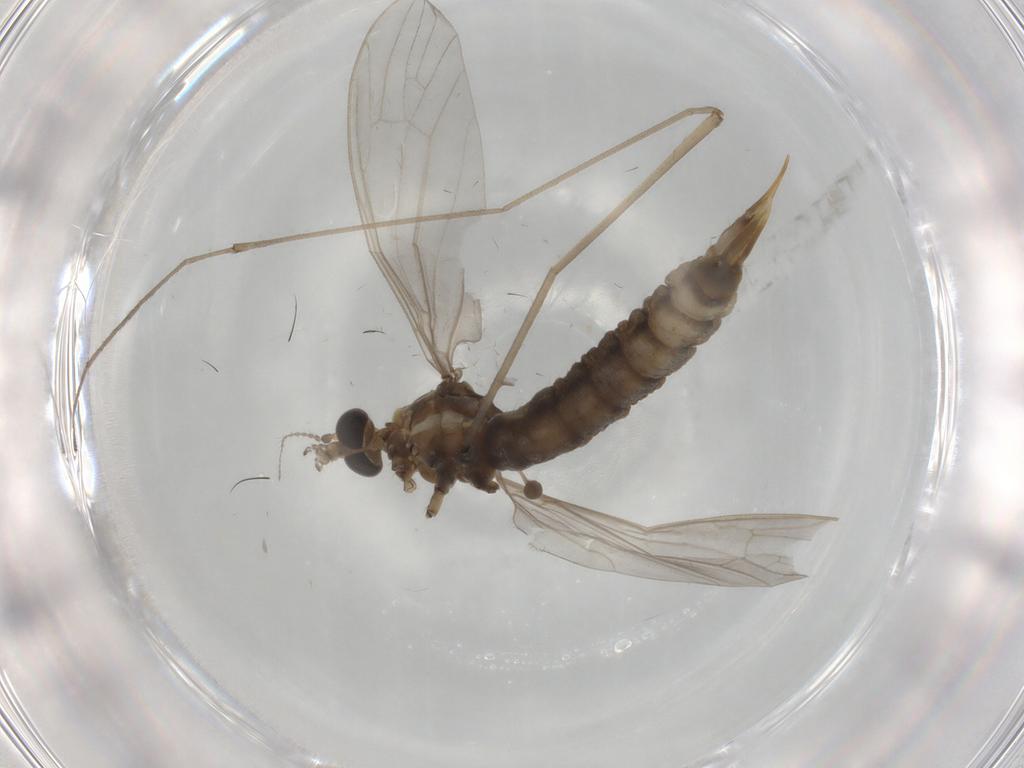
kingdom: Animalia
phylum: Arthropoda
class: Insecta
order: Diptera
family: Ceratopogonidae
